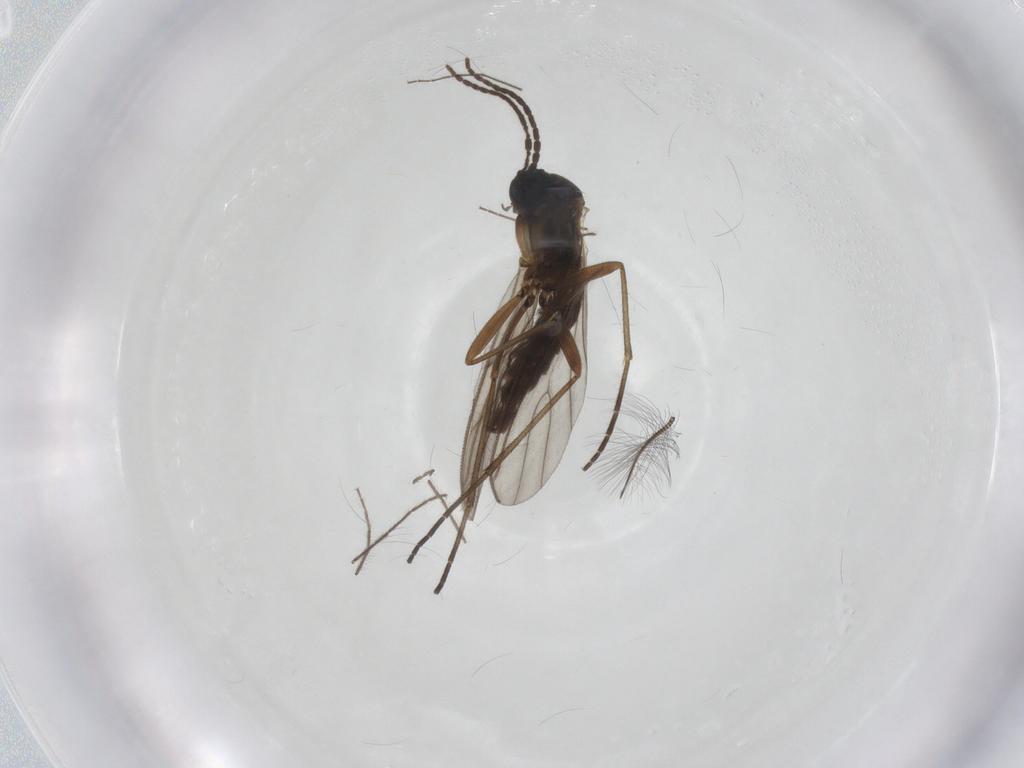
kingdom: Animalia
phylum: Arthropoda
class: Insecta
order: Diptera
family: Sciaridae
